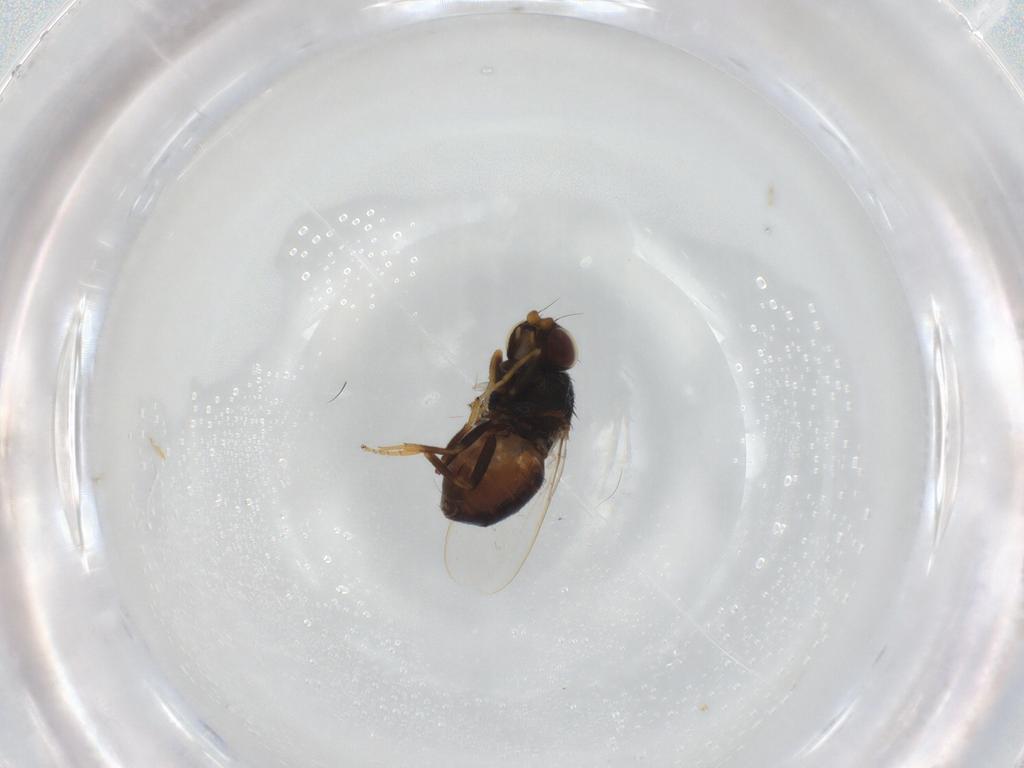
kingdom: Animalia
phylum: Arthropoda
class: Insecta
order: Diptera
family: Chloropidae
